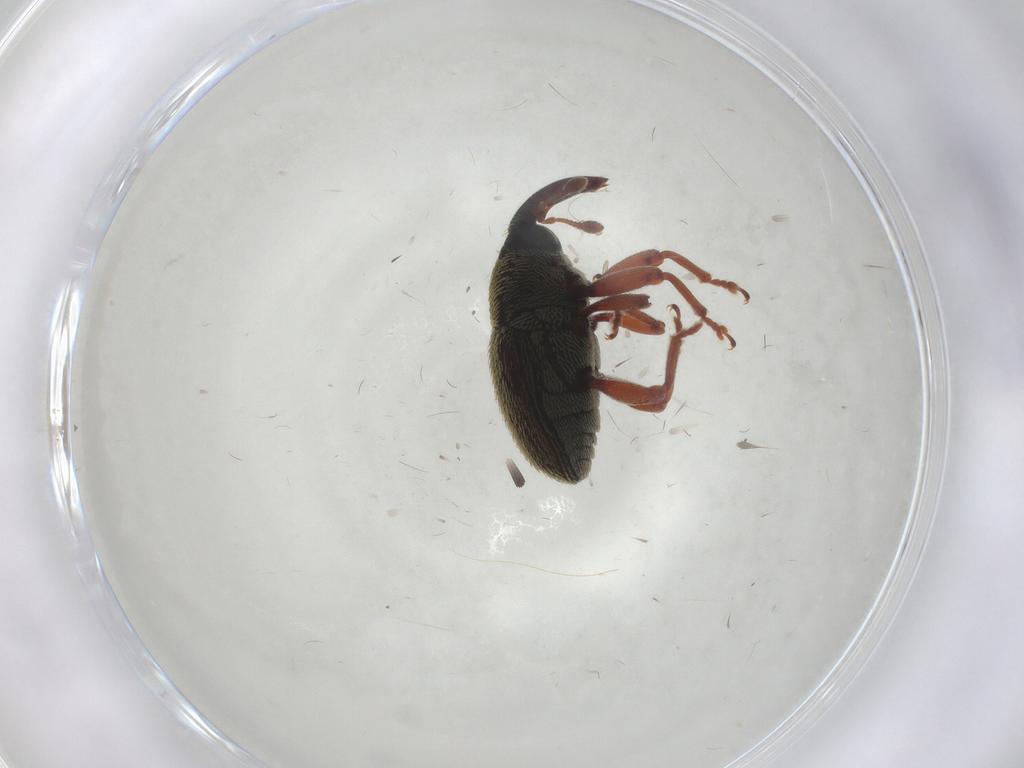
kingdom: Animalia
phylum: Arthropoda
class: Insecta
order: Coleoptera
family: Curculionidae
